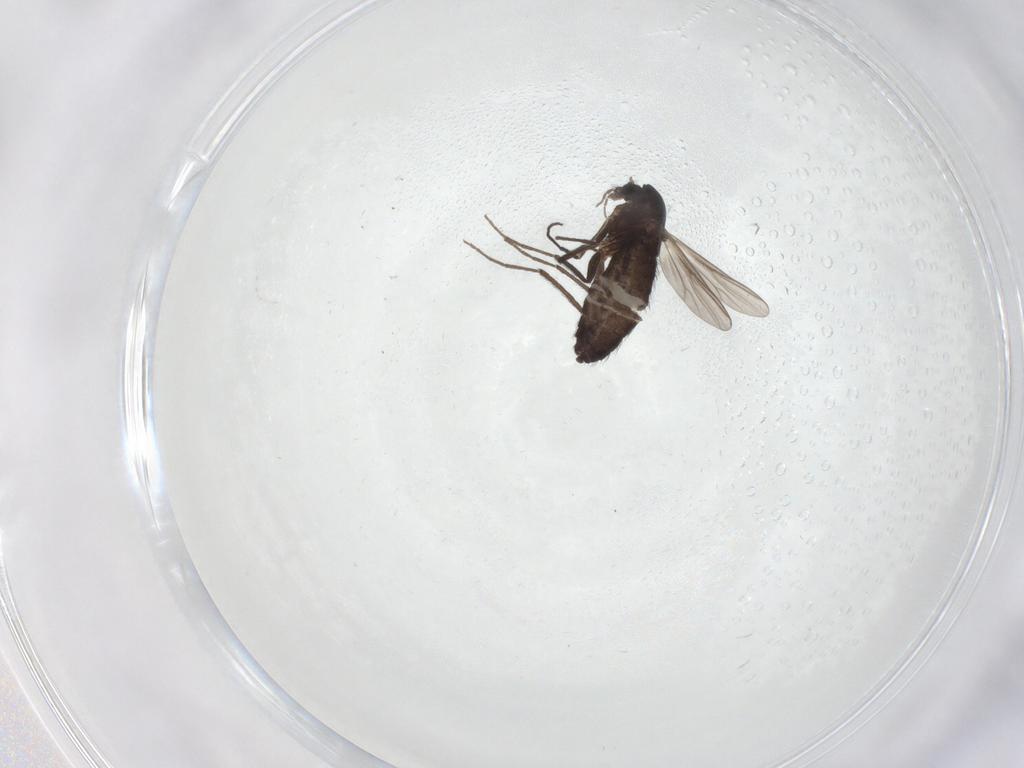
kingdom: Animalia
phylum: Arthropoda
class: Insecta
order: Diptera
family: Chironomidae
